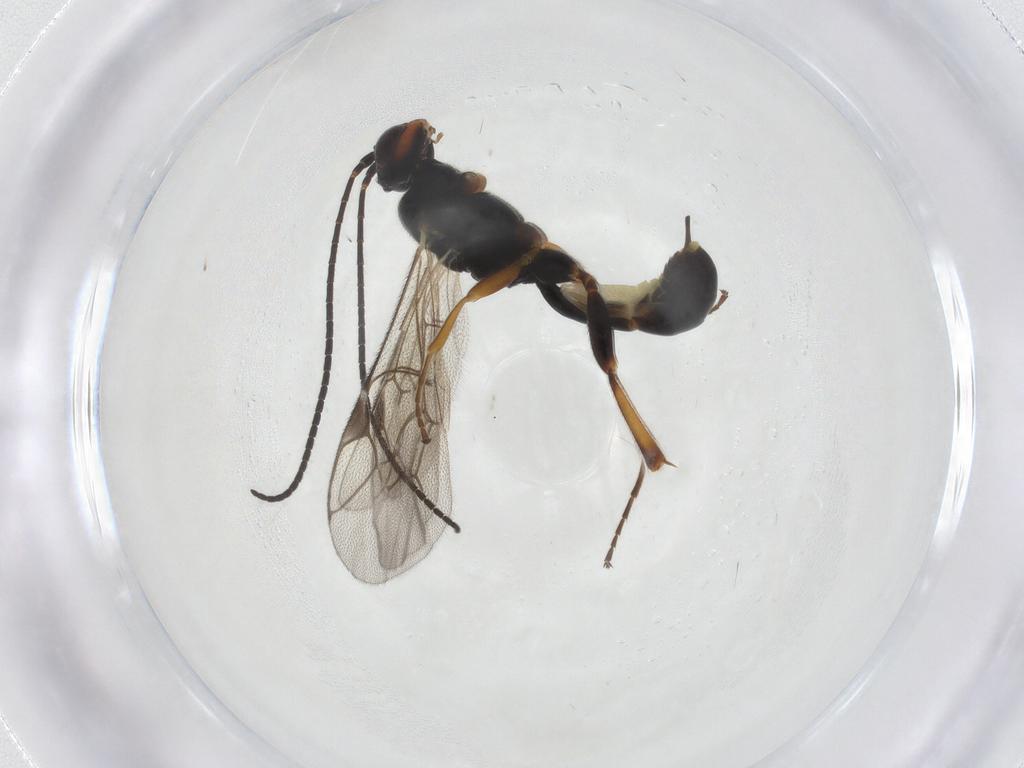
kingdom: Animalia
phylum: Arthropoda
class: Insecta
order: Hymenoptera
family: Ichneumonidae
